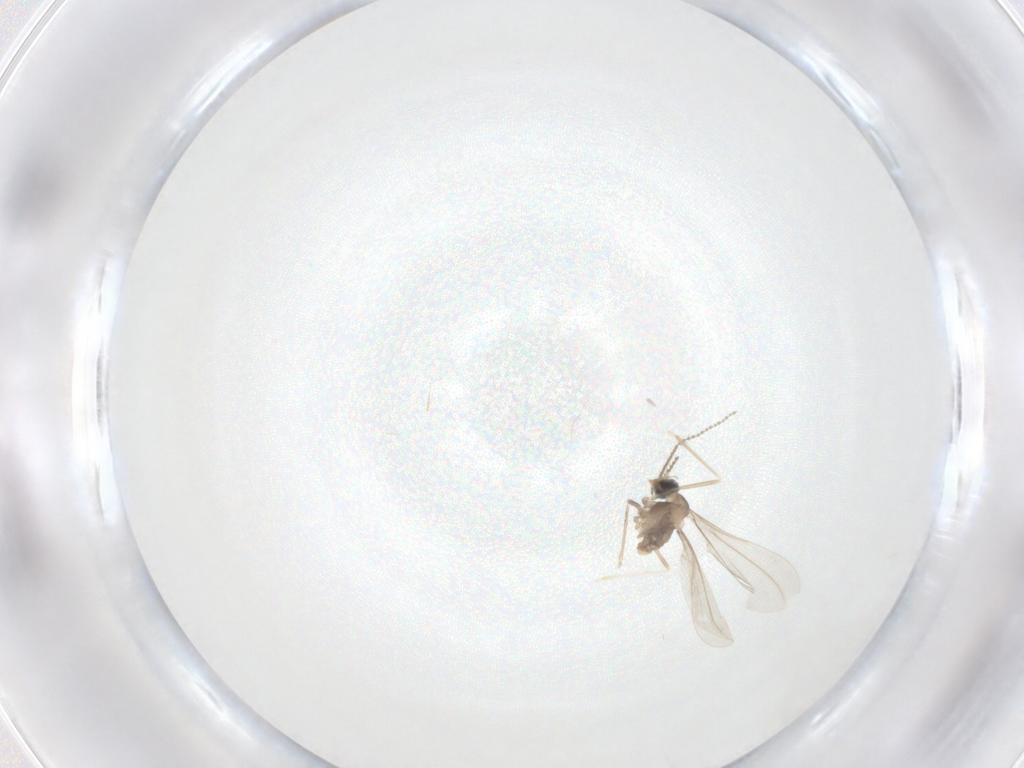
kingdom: Animalia
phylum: Arthropoda
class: Insecta
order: Diptera
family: Cecidomyiidae
